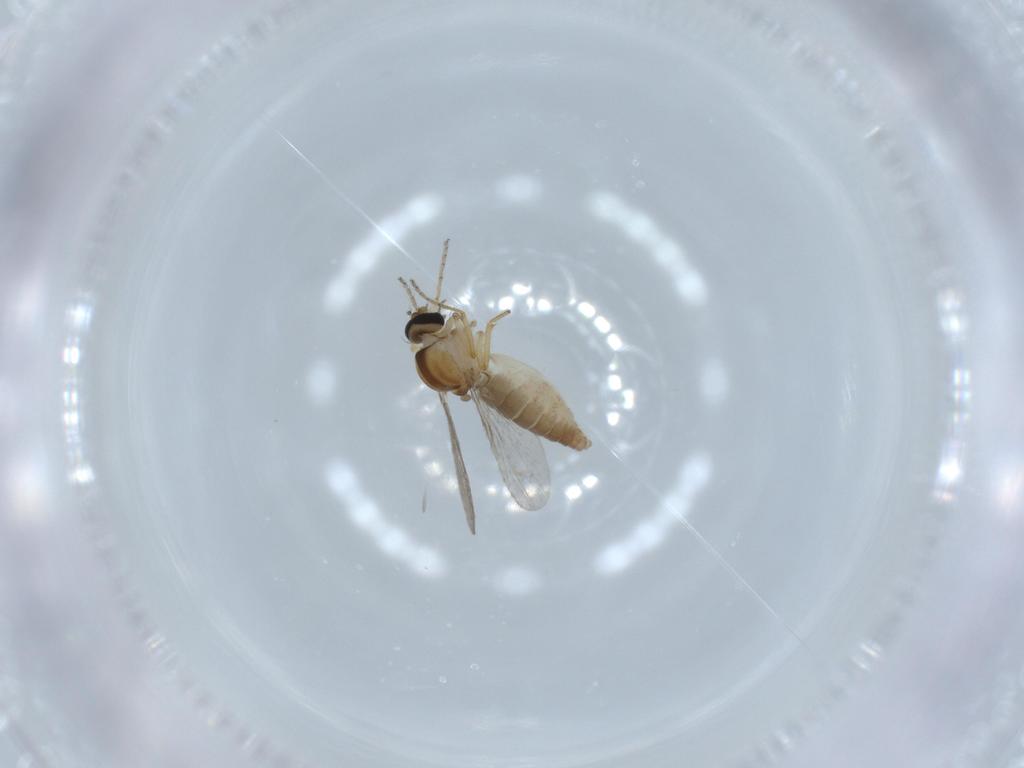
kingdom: Animalia
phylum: Arthropoda
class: Insecta
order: Diptera
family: Ceratopogonidae
